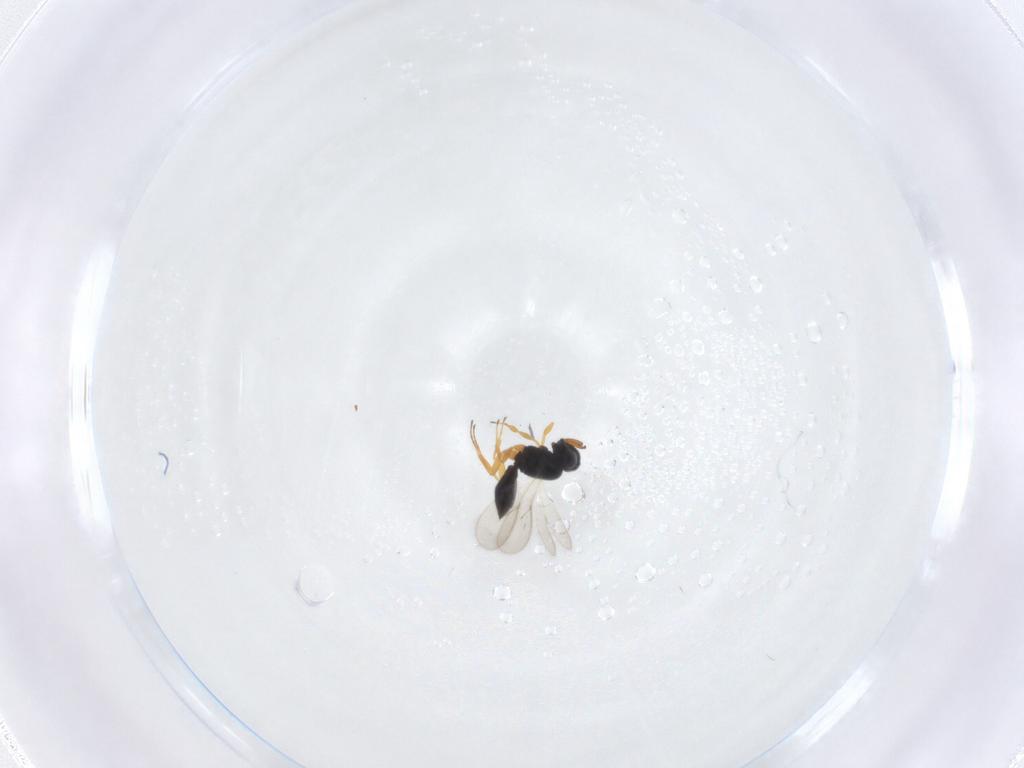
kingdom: Animalia
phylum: Arthropoda
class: Insecta
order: Hymenoptera
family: Scelionidae
